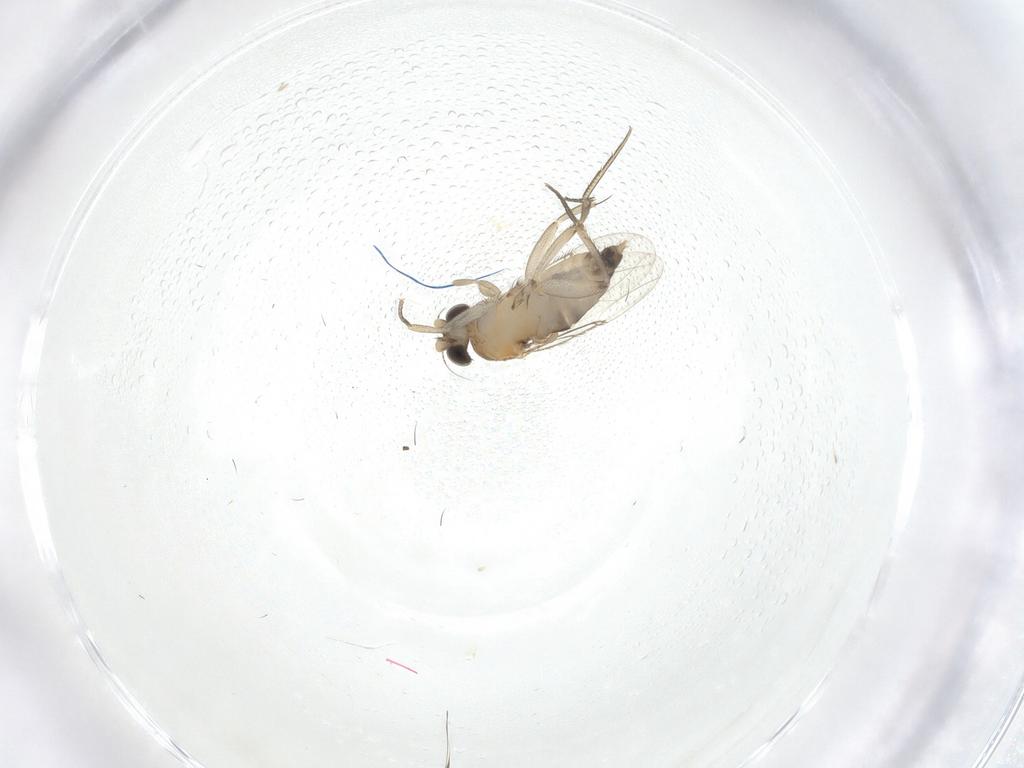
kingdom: Animalia
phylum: Arthropoda
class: Insecta
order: Diptera
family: Phoridae
